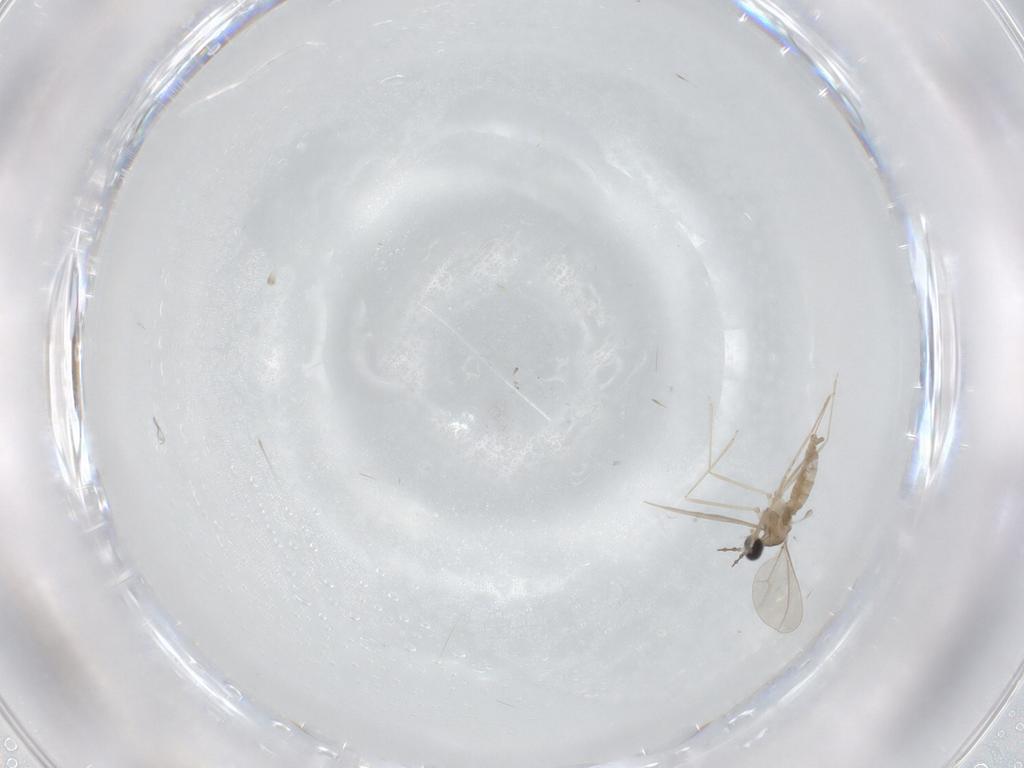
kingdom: Animalia
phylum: Arthropoda
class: Insecta
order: Diptera
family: Cecidomyiidae
